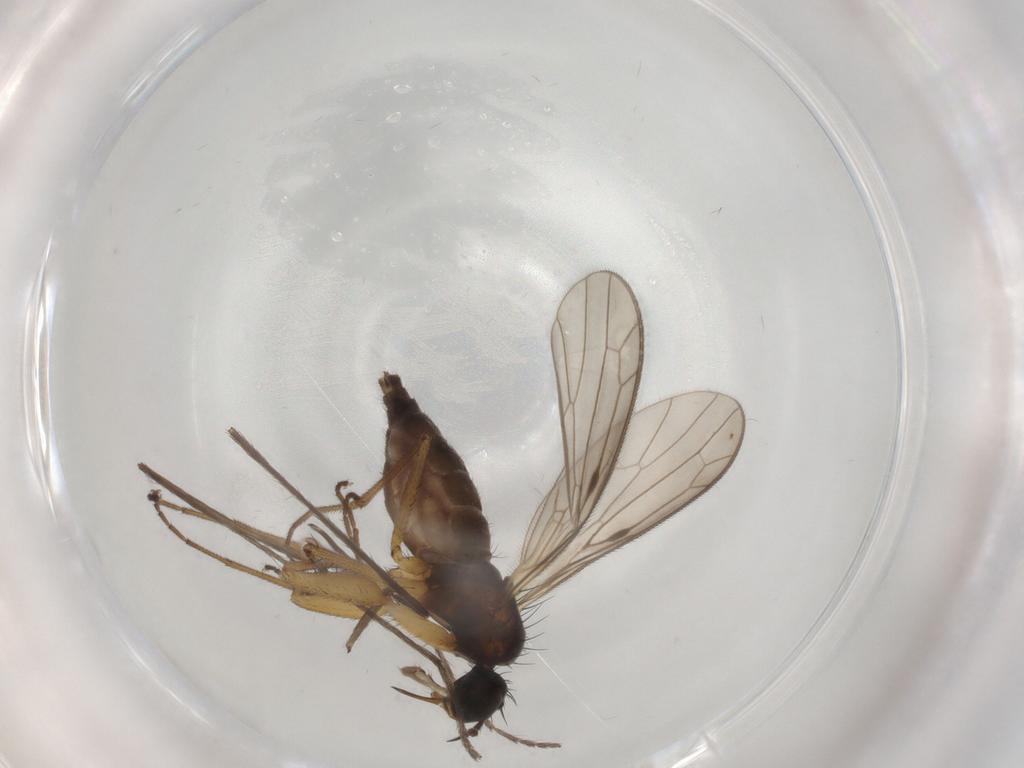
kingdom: Animalia
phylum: Arthropoda
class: Insecta
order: Diptera
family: Empididae
